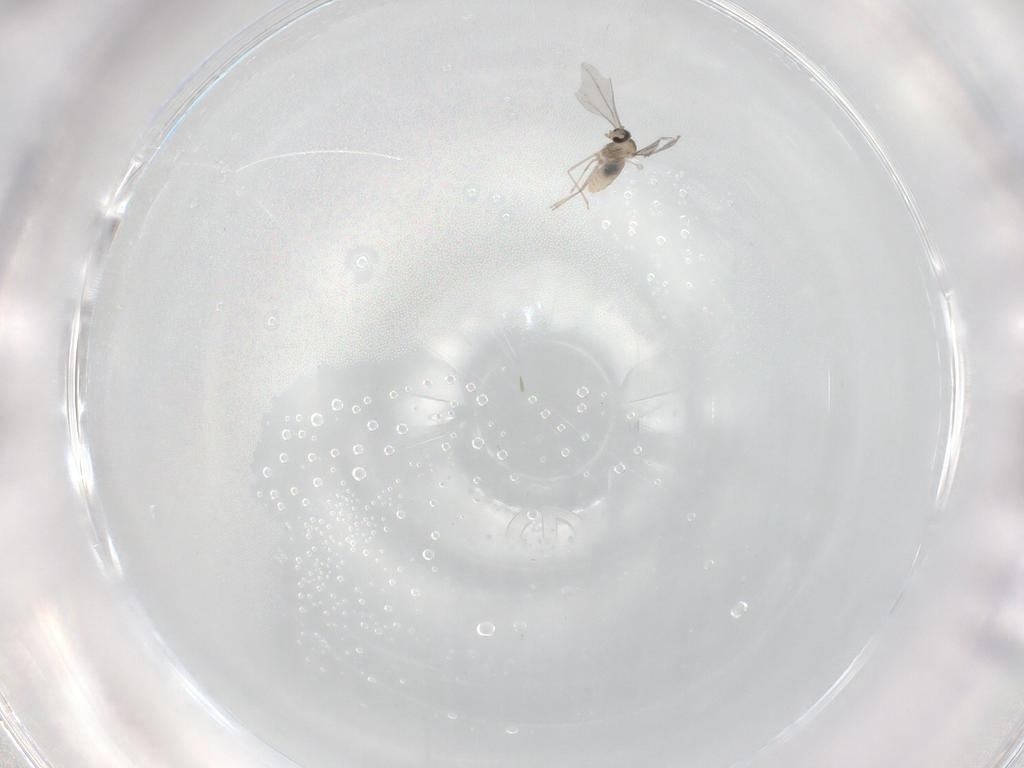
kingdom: Animalia
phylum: Arthropoda
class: Insecta
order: Diptera
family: Cecidomyiidae
